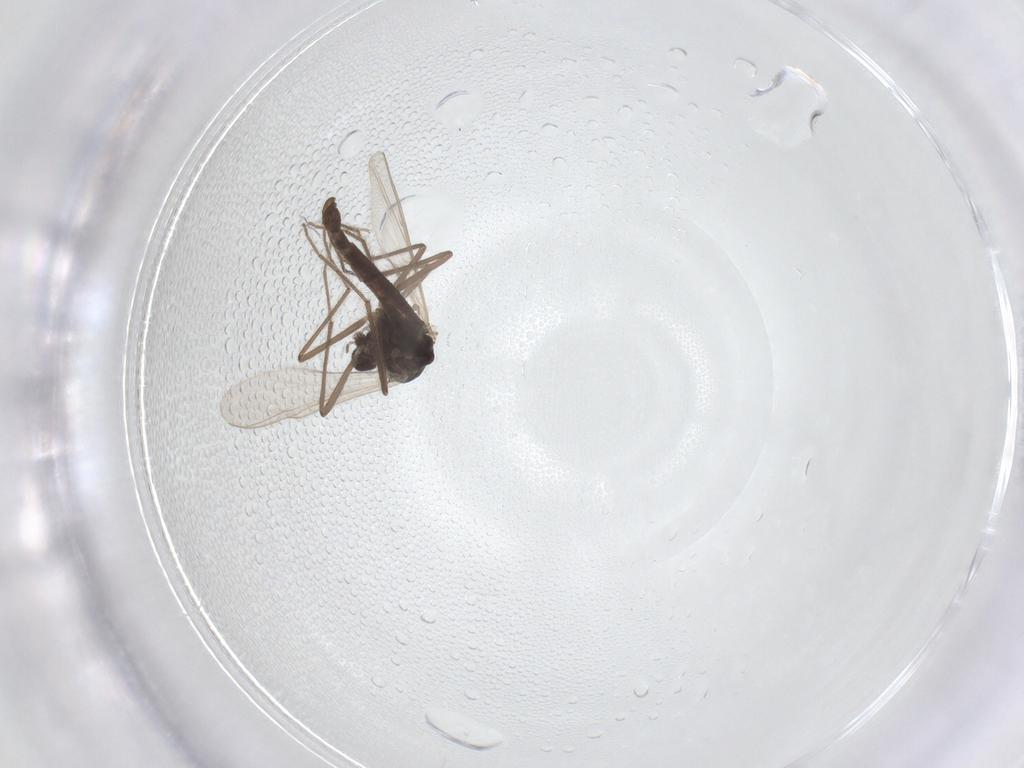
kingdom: Animalia
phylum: Arthropoda
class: Insecta
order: Diptera
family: Chironomidae
